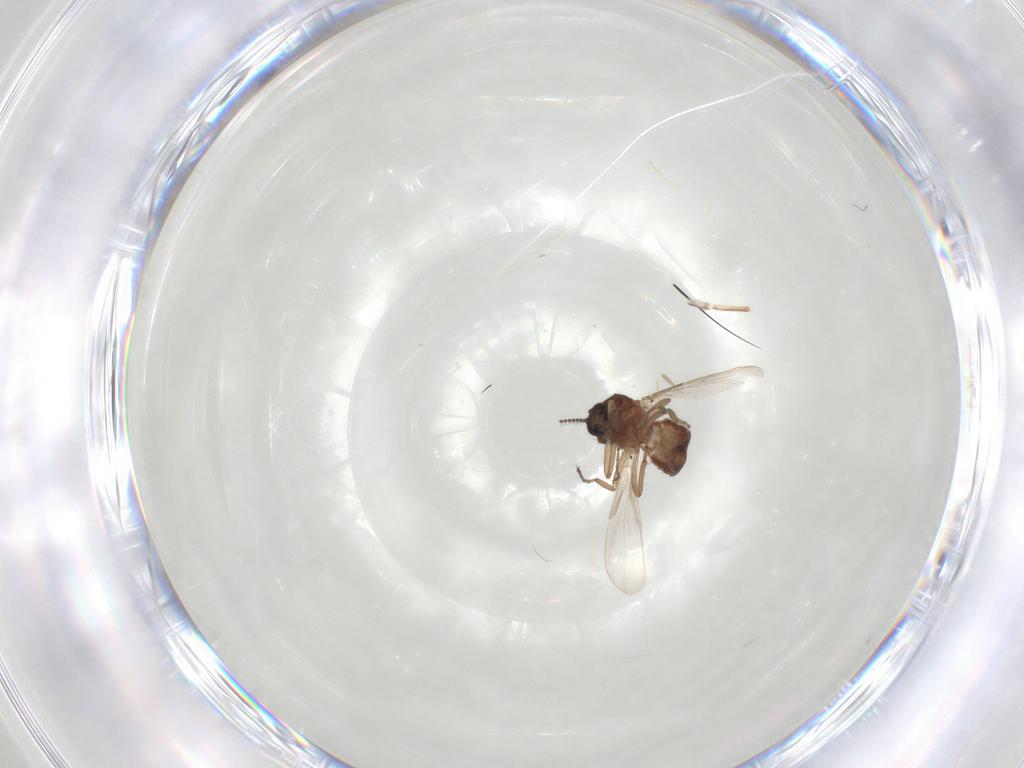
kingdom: Animalia
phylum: Arthropoda
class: Insecta
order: Diptera
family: Ceratopogonidae
